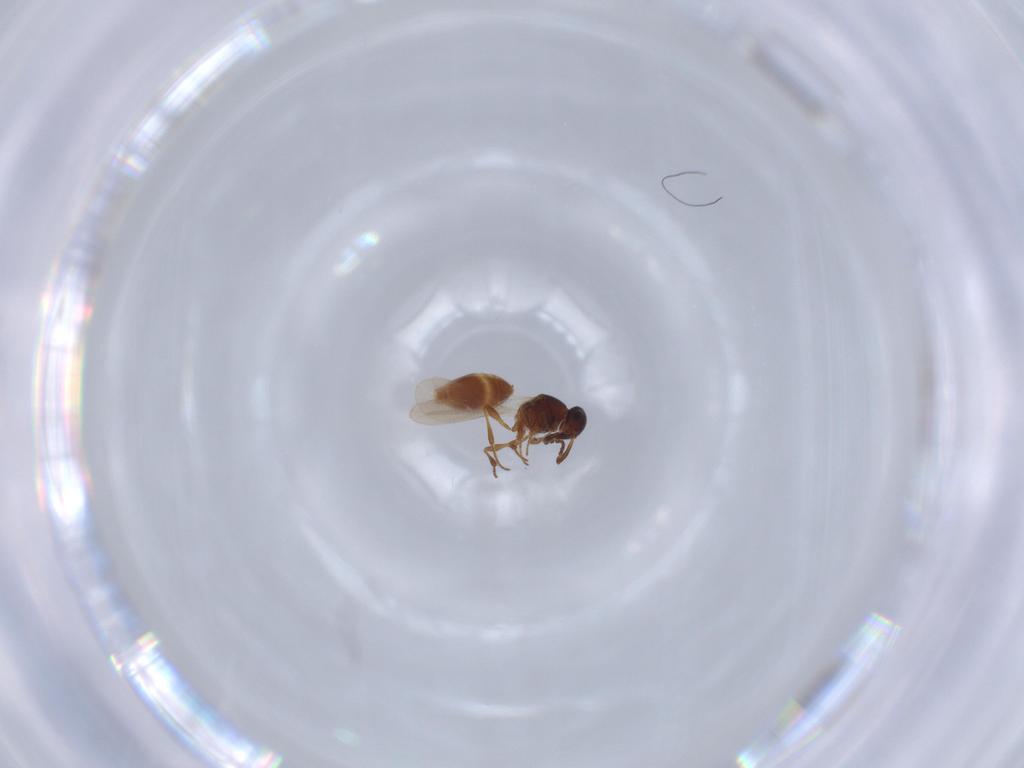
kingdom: Animalia
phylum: Arthropoda
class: Insecta
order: Hymenoptera
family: Platygastridae
